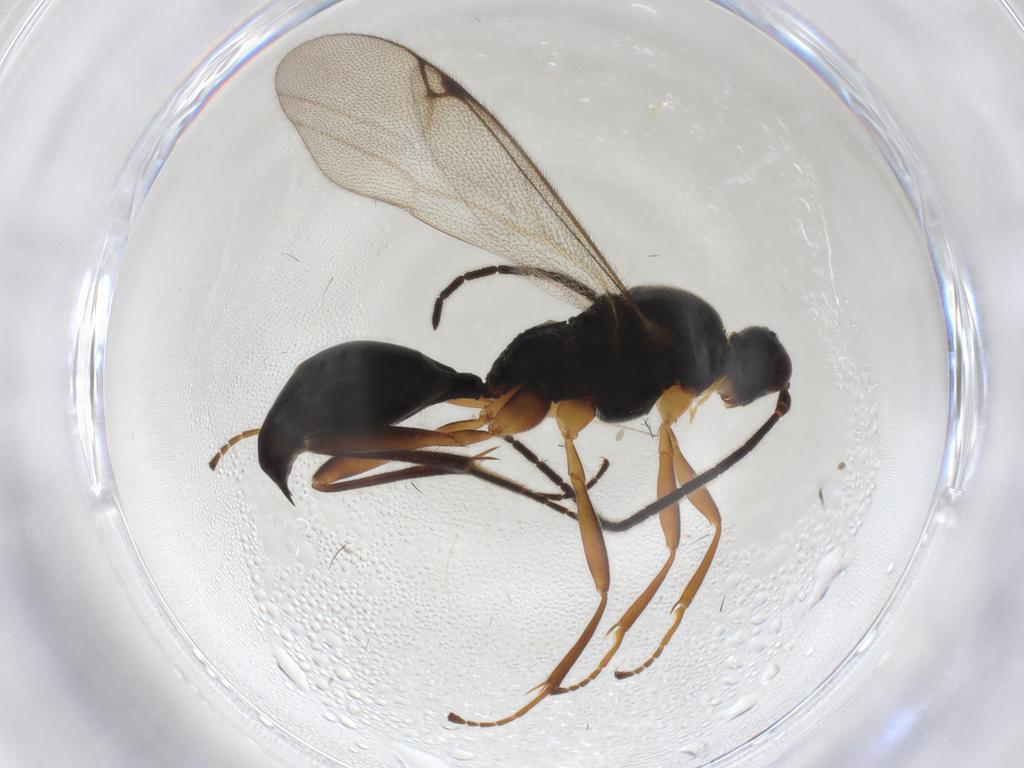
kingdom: Animalia
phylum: Arthropoda
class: Insecta
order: Hymenoptera
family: Proctotrupidae
